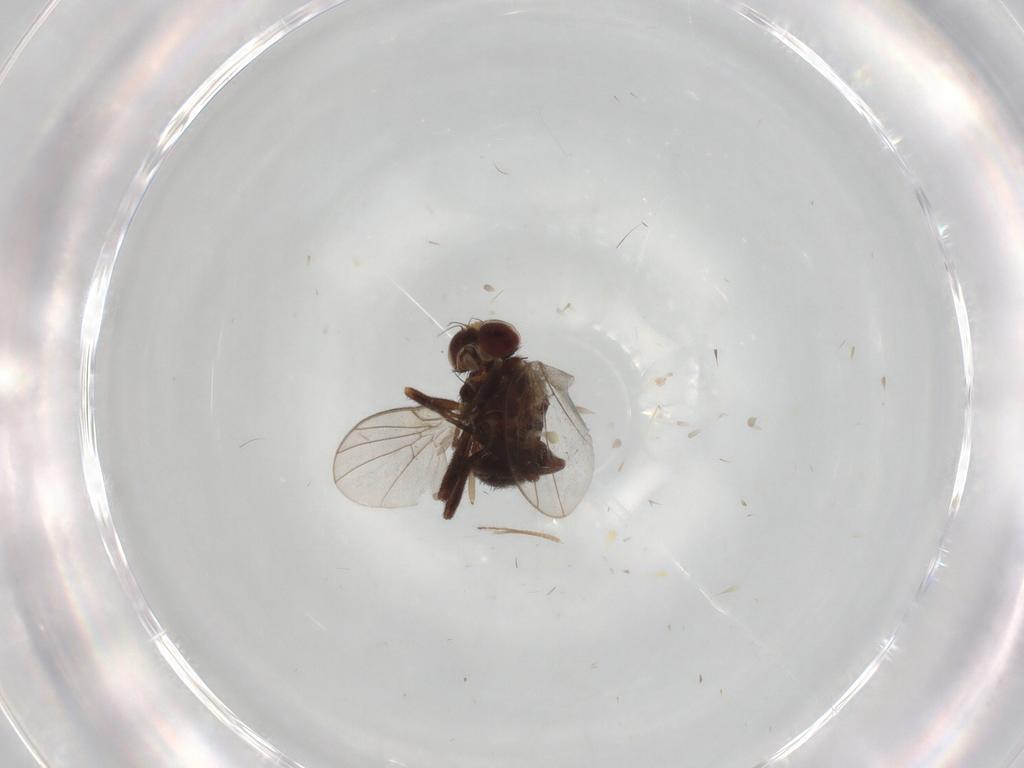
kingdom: Animalia
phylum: Arthropoda
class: Insecta
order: Diptera
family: Agromyzidae
